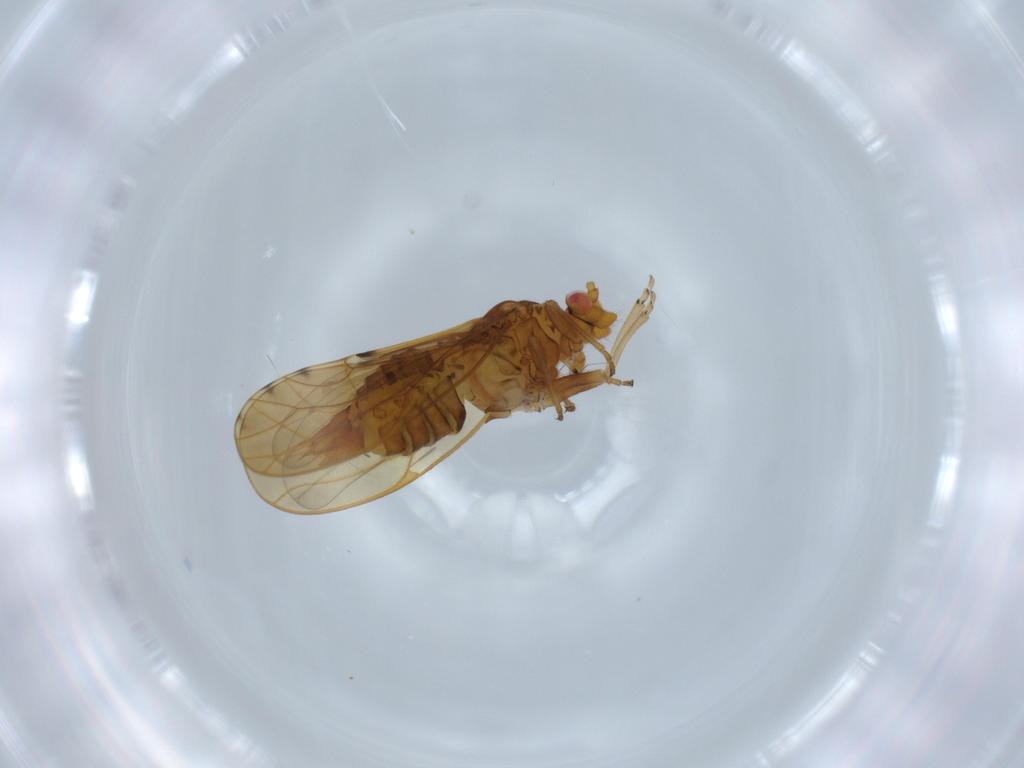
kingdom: Animalia
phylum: Arthropoda
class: Insecta
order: Hemiptera
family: Psylloidea_incertae_sedis
